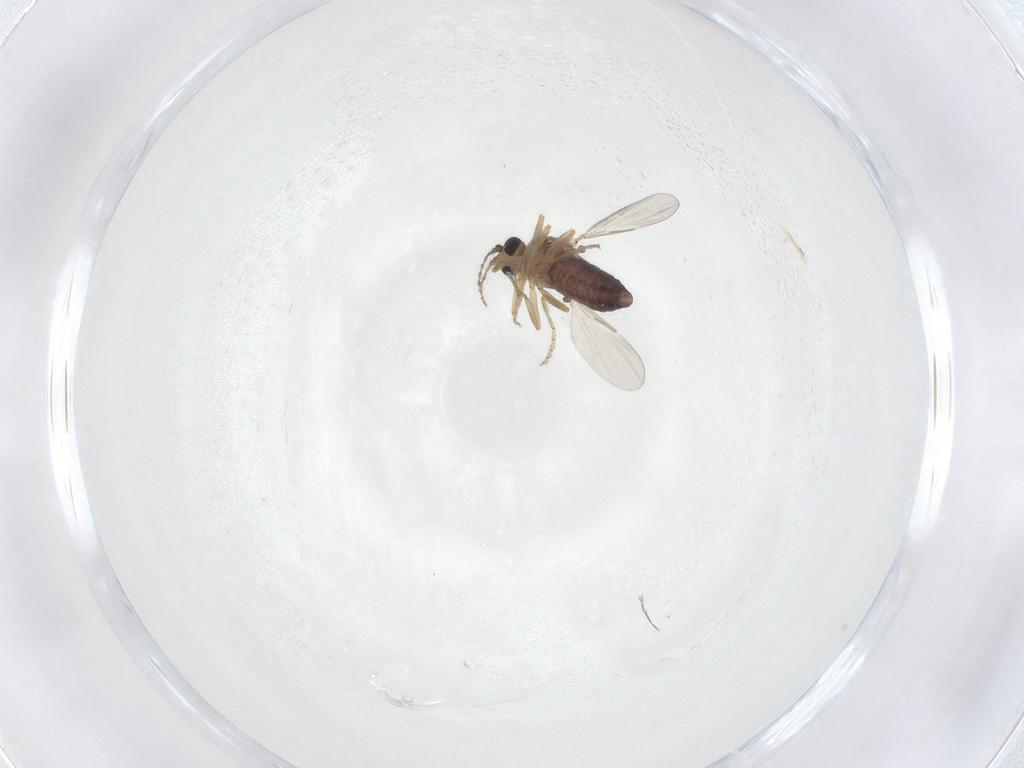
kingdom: Animalia
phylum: Arthropoda
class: Insecta
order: Diptera
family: Ceratopogonidae
